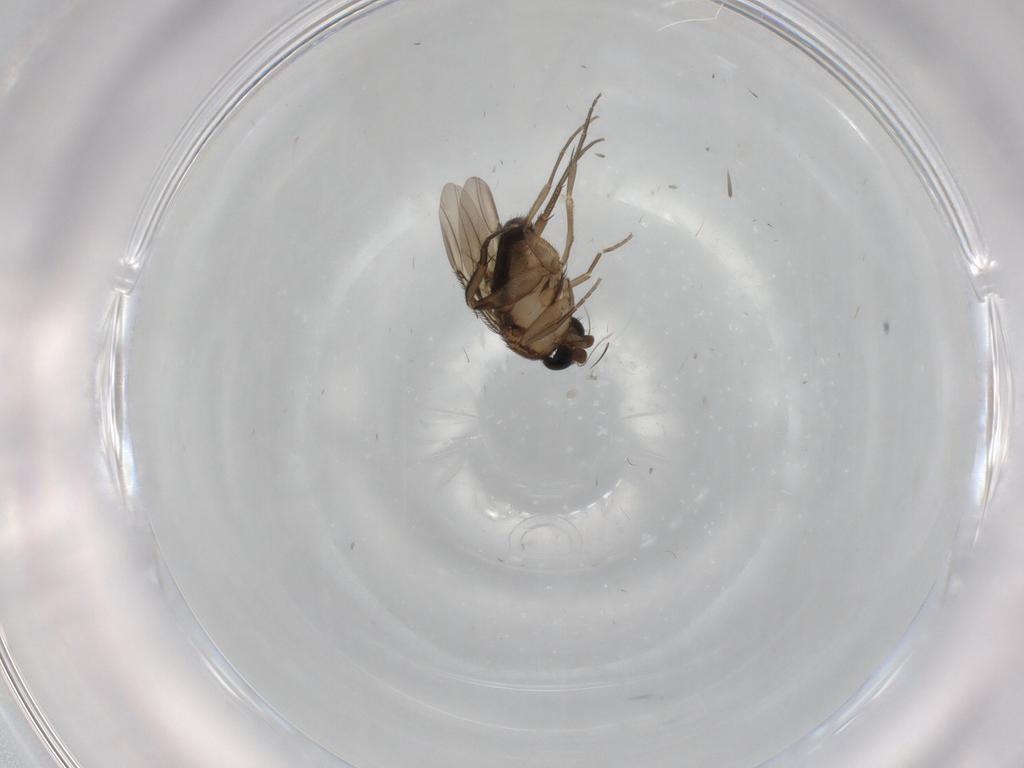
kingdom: Animalia
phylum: Arthropoda
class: Insecta
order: Diptera
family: Phoridae
